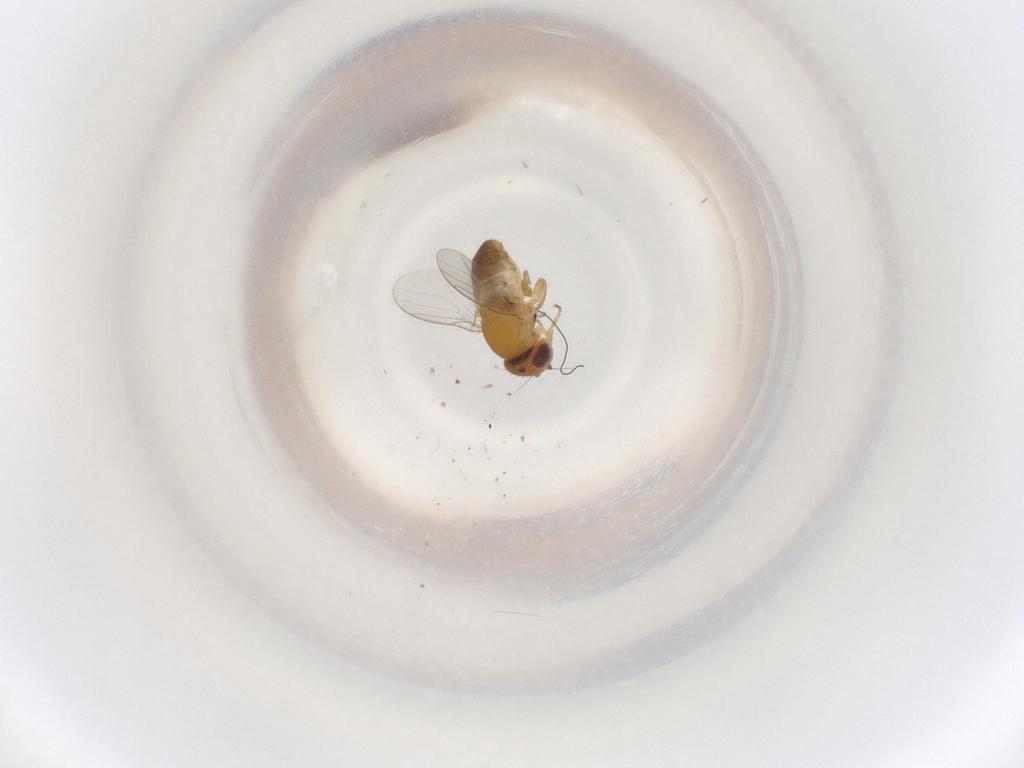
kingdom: Animalia
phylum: Arthropoda
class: Insecta
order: Diptera
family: Chloropidae
